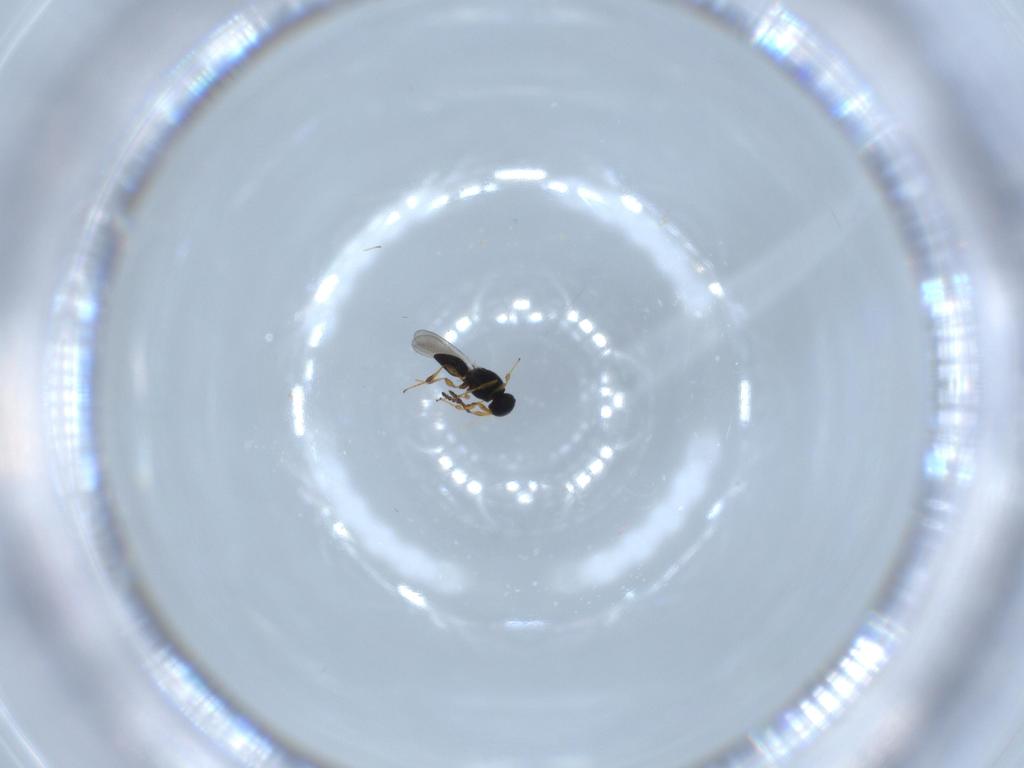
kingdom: Animalia
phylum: Arthropoda
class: Insecta
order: Hymenoptera
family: Platygastridae
